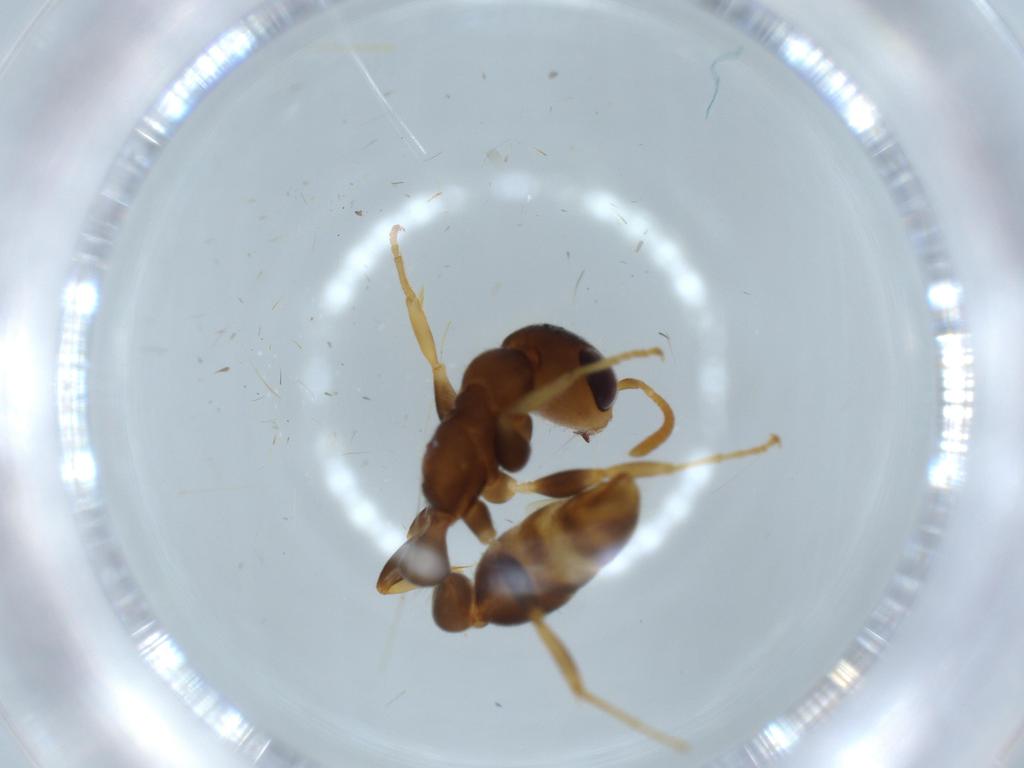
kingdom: Animalia
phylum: Arthropoda
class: Insecta
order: Hymenoptera
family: Formicidae
